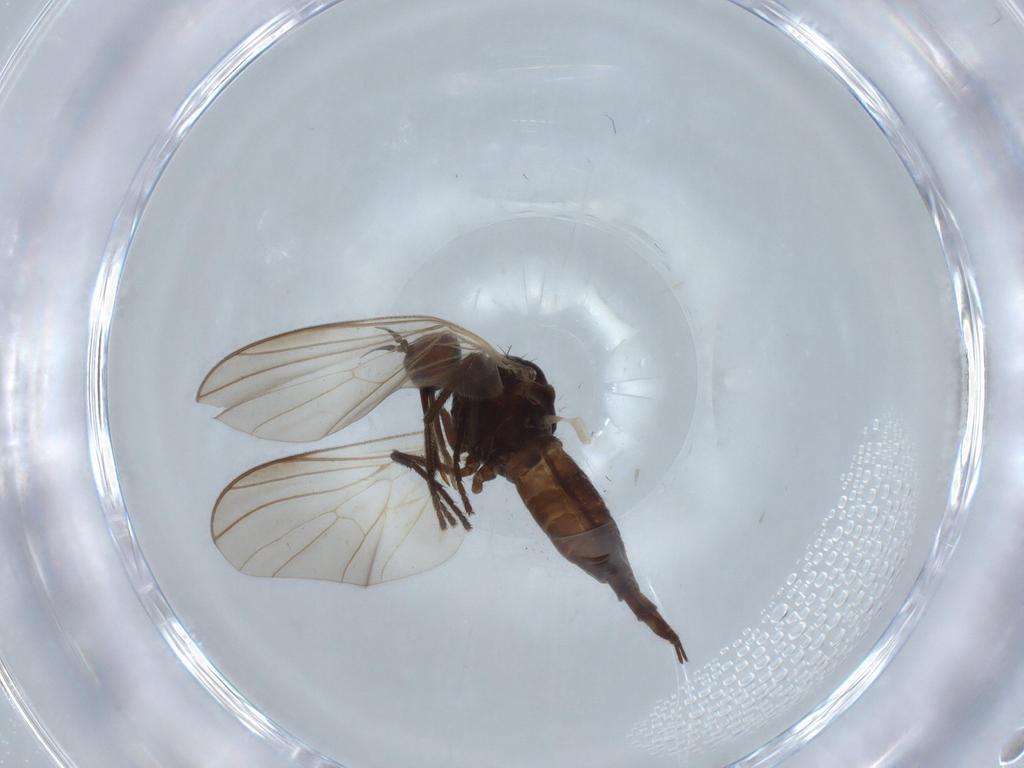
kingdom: Animalia
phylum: Arthropoda
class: Insecta
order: Diptera
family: Empididae
